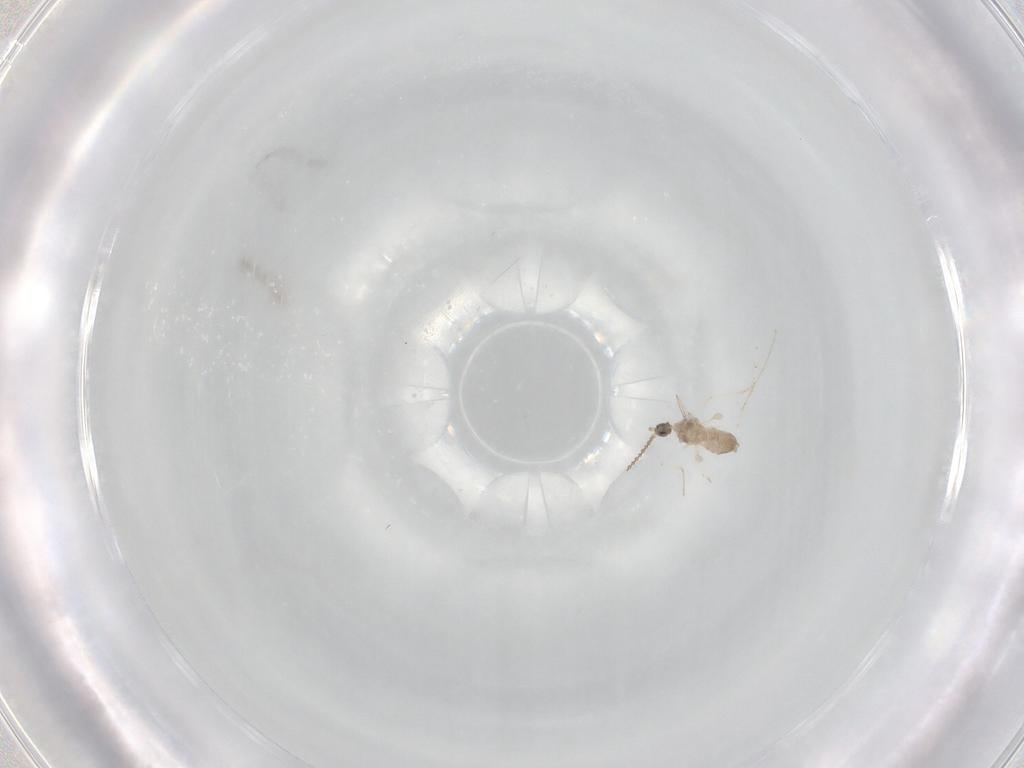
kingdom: Animalia
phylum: Arthropoda
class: Insecta
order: Diptera
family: Cecidomyiidae
